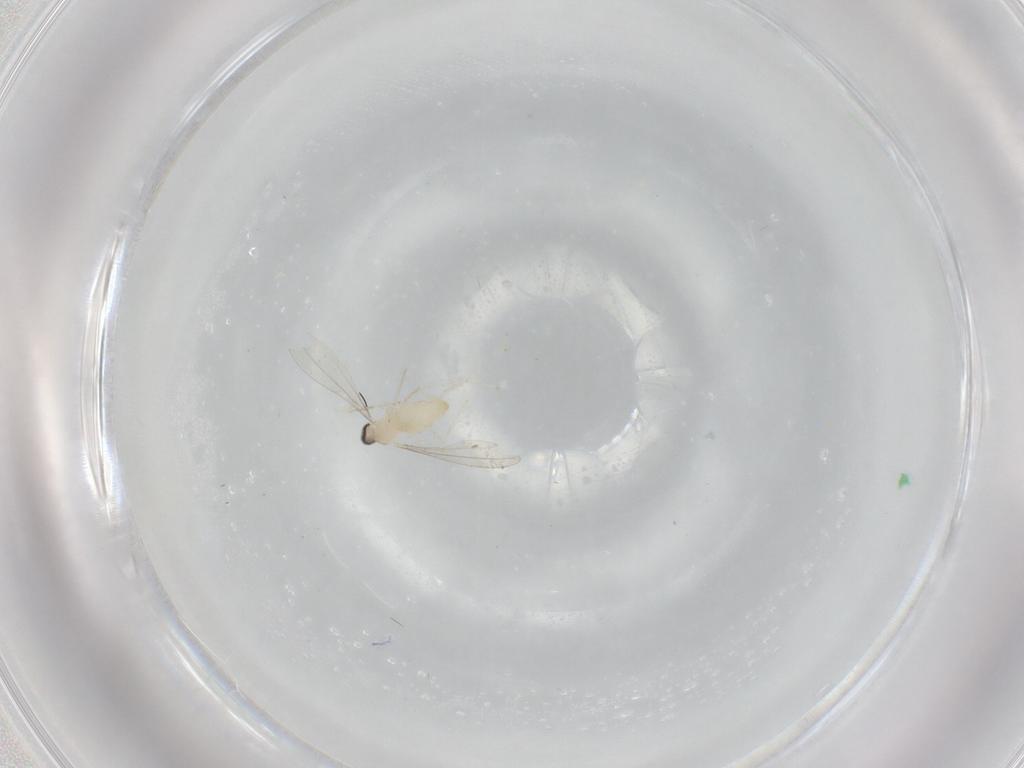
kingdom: Animalia
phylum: Arthropoda
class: Insecta
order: Diptera
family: Cecidomyiidae
